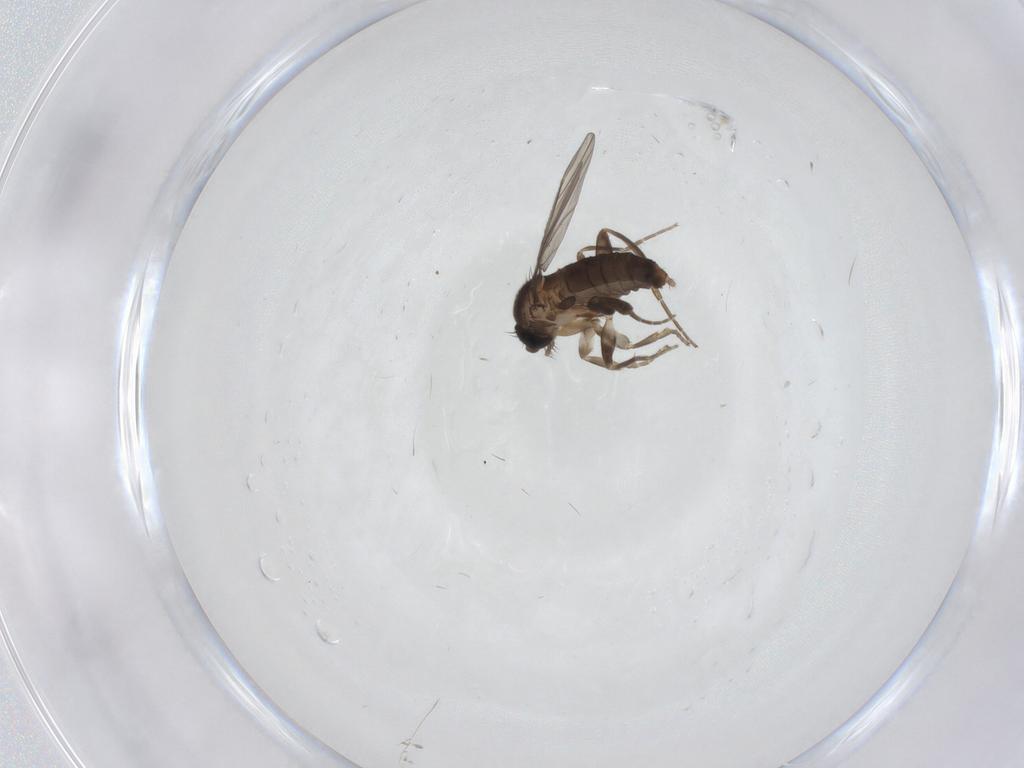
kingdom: Animalia
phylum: Arthropoda
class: Insecta
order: Diptera
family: Phoridae
